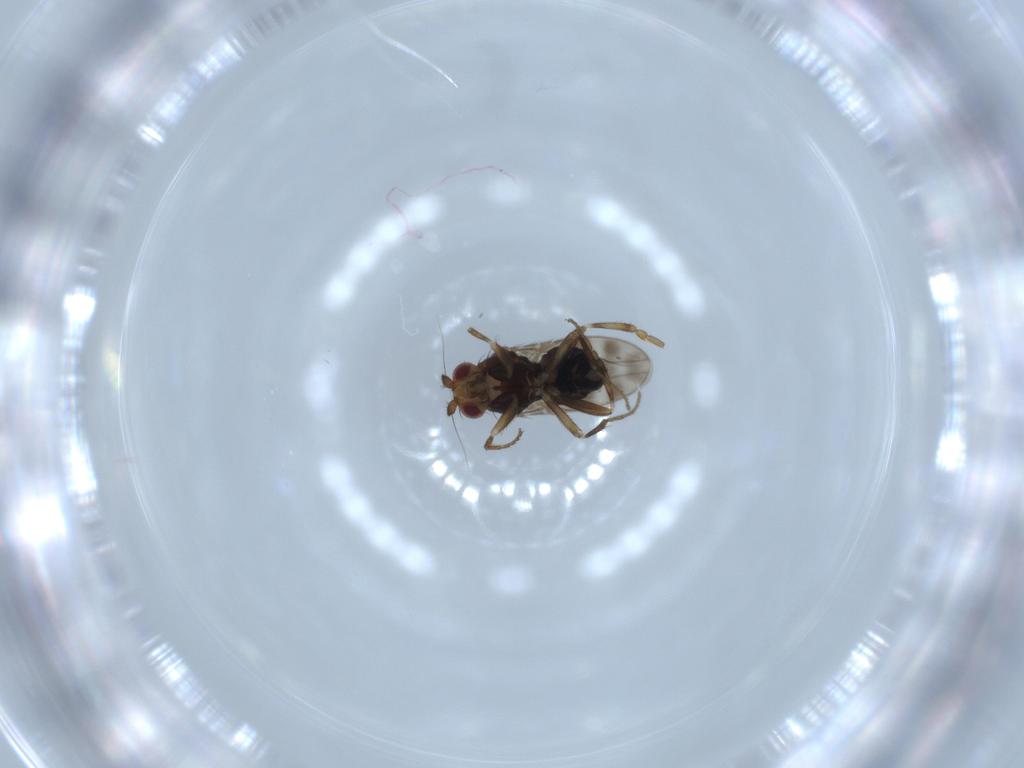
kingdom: Animalia
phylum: Arthropoda
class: Insecta
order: Diptera
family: Sphaeroceridae
